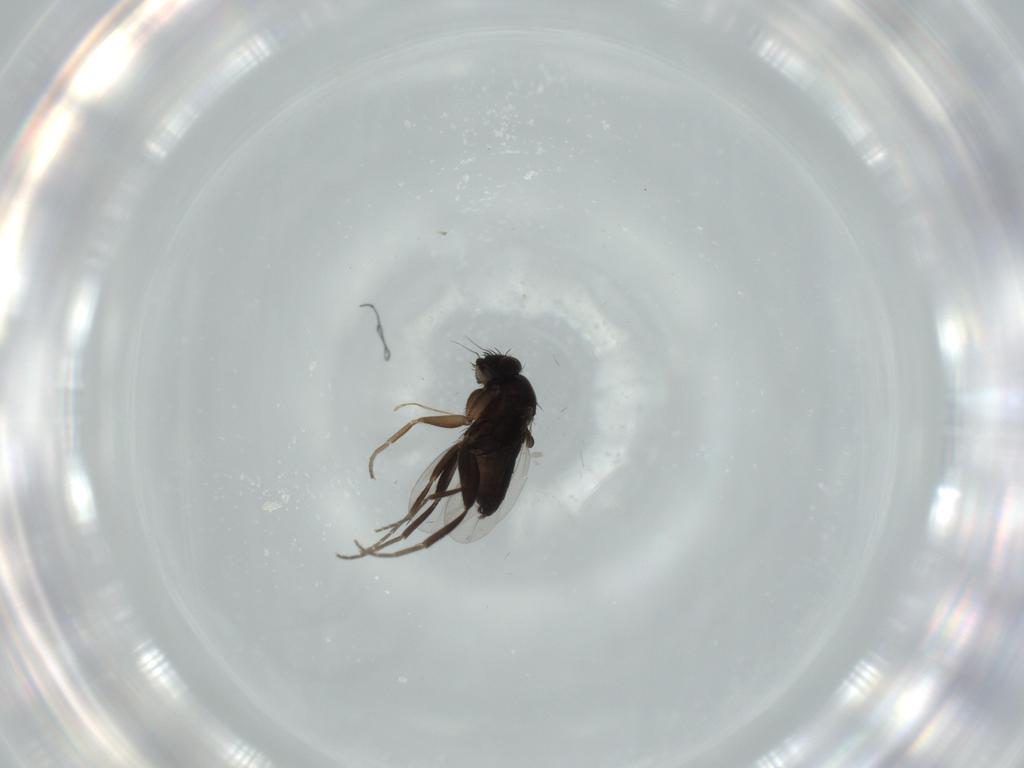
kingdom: Animalia
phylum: Arthropoda
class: Insecta
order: Diptera
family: Phoridae
